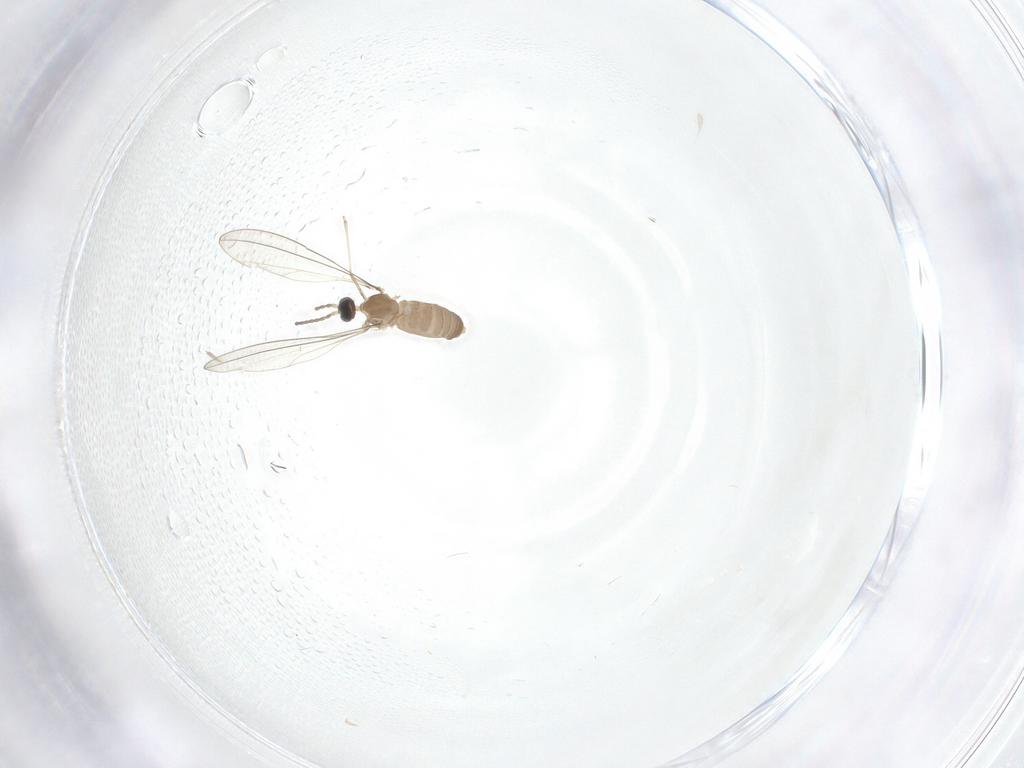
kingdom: Animalia
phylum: Arthropoda
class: Insecta
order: Diptera
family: Cecidomyiidae
